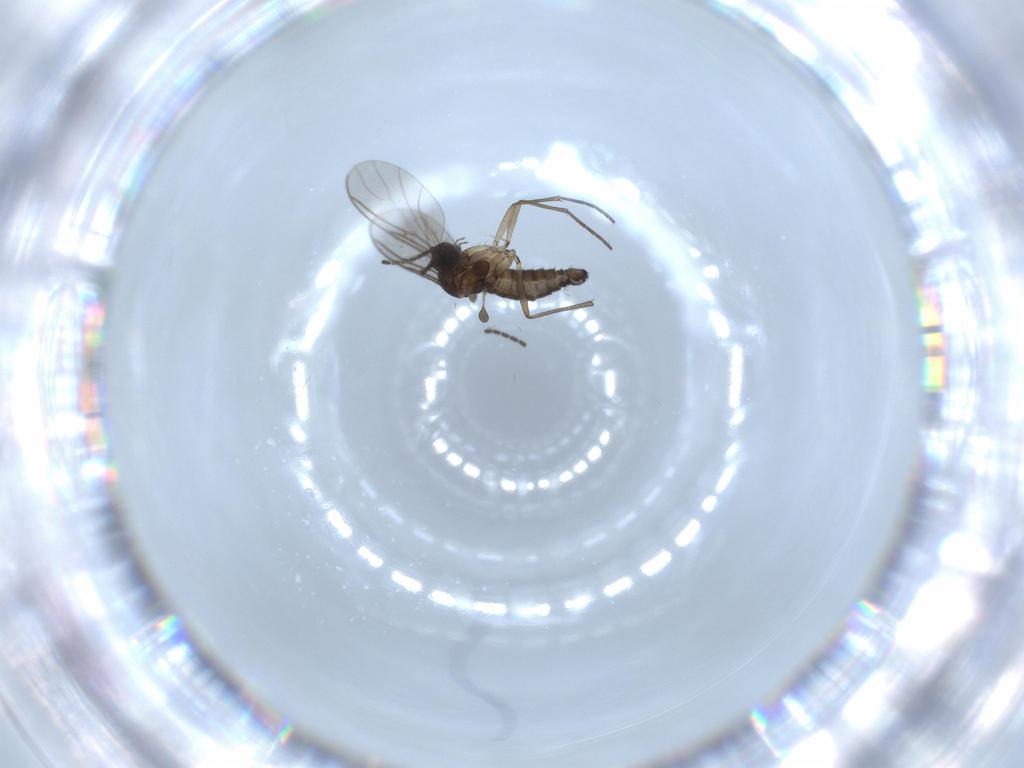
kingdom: Animalia
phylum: Arthropoda
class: Insecta
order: Diptera
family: Sciaridae
